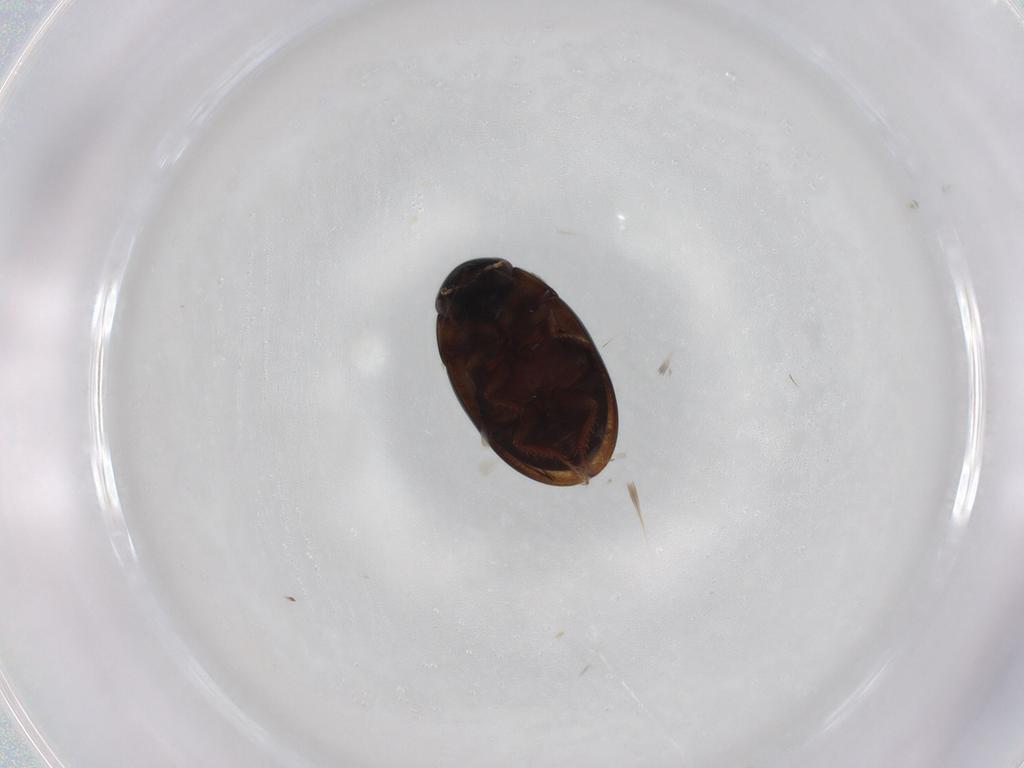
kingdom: Animalia
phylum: Arthropoda
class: Insecta
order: Coleoptera
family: Hydrophilidae
